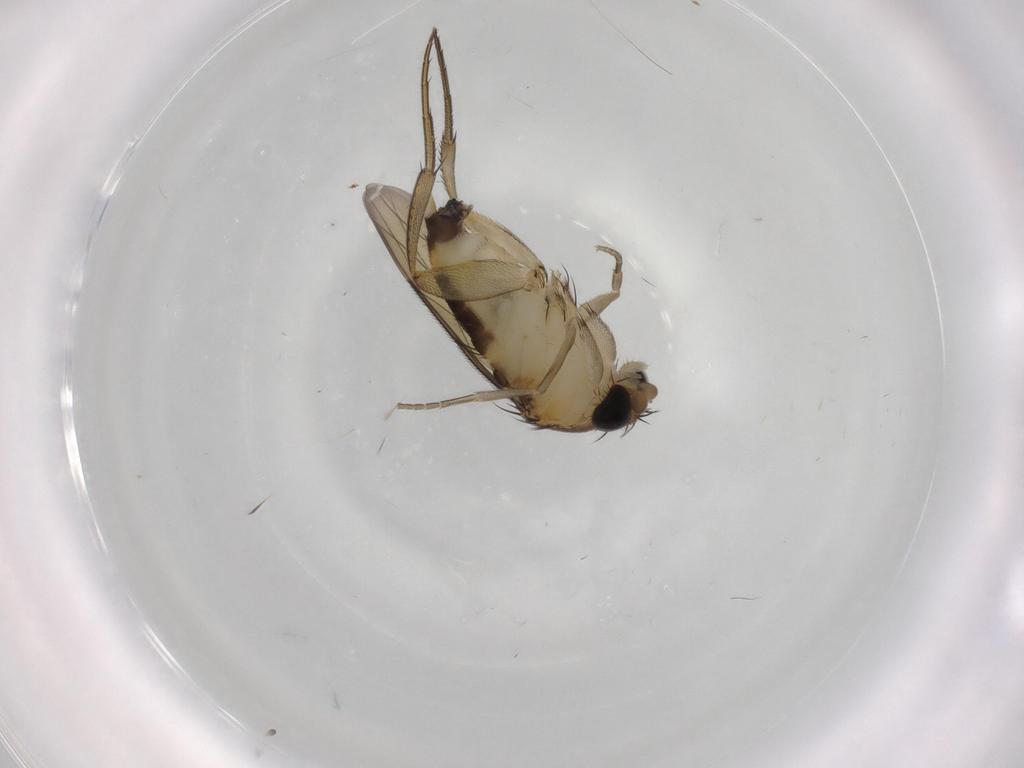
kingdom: Animalia
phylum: Arthropoda
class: Insecta
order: Diptera
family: Phoridae
